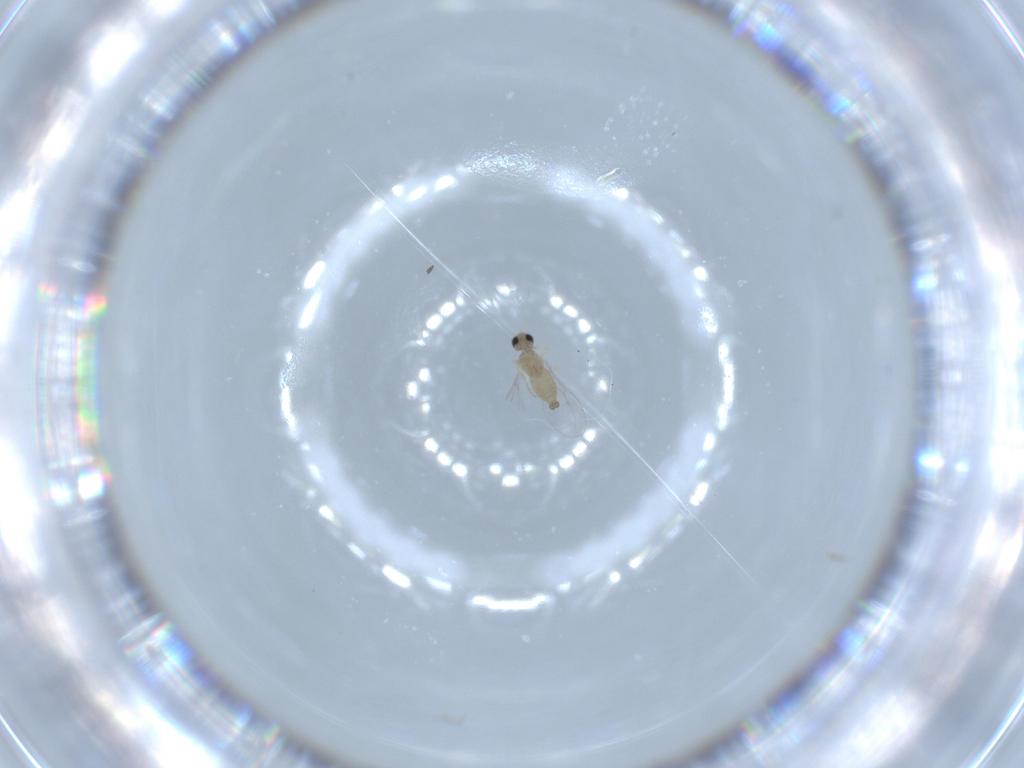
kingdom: Animalia
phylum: Arthropoda
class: Insecta
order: Diptera
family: Cecidomyiidae
